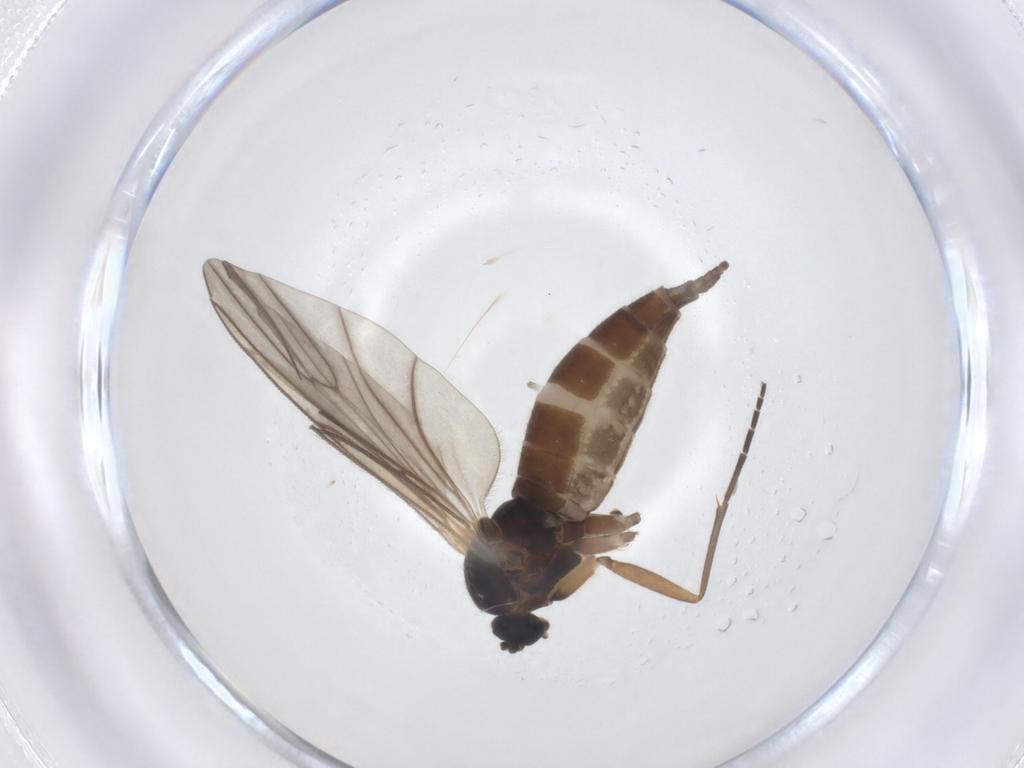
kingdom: Animalia
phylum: Arthropoda
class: Insecta
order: Diptera
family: Sciaridae
